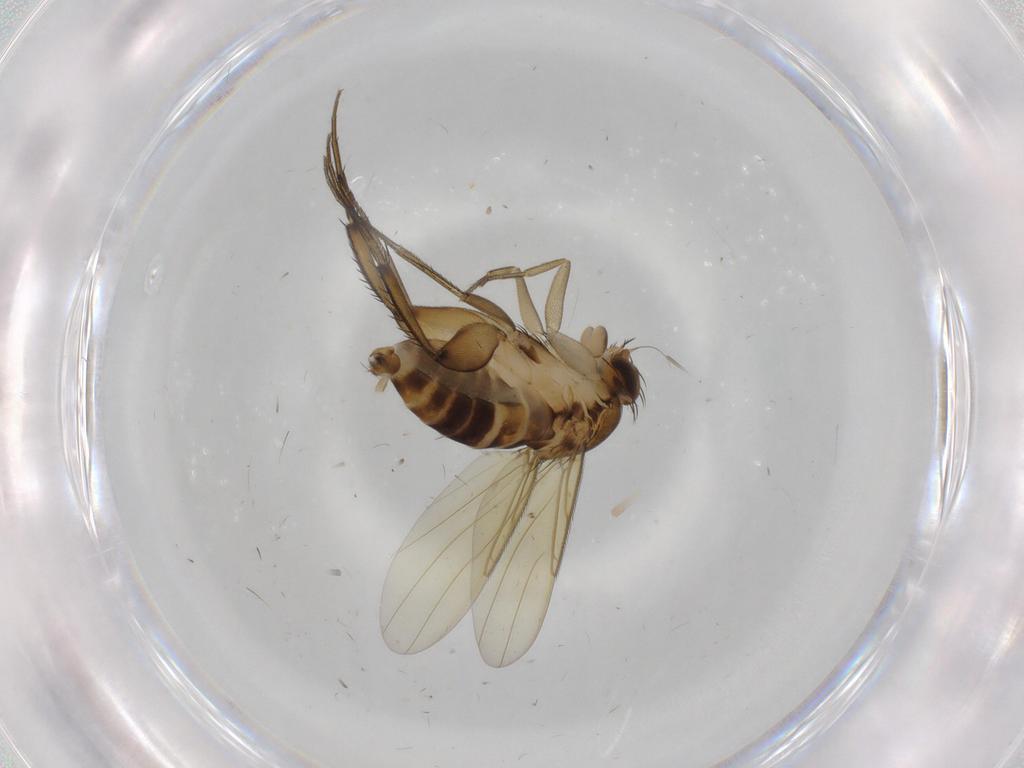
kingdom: Animalia
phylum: Arthropoda
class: Insecta
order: Diptera
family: Phoridae
